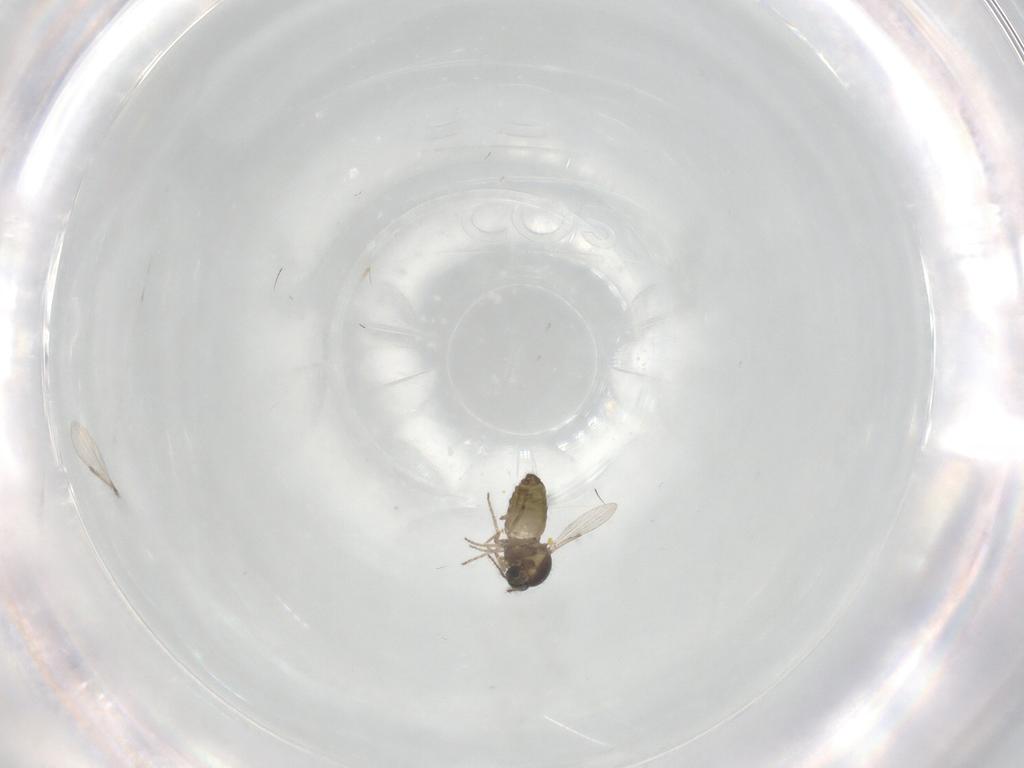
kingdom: Animalia
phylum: Arthropoda
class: Insecta
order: Diptera
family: Ceratopogonidae
